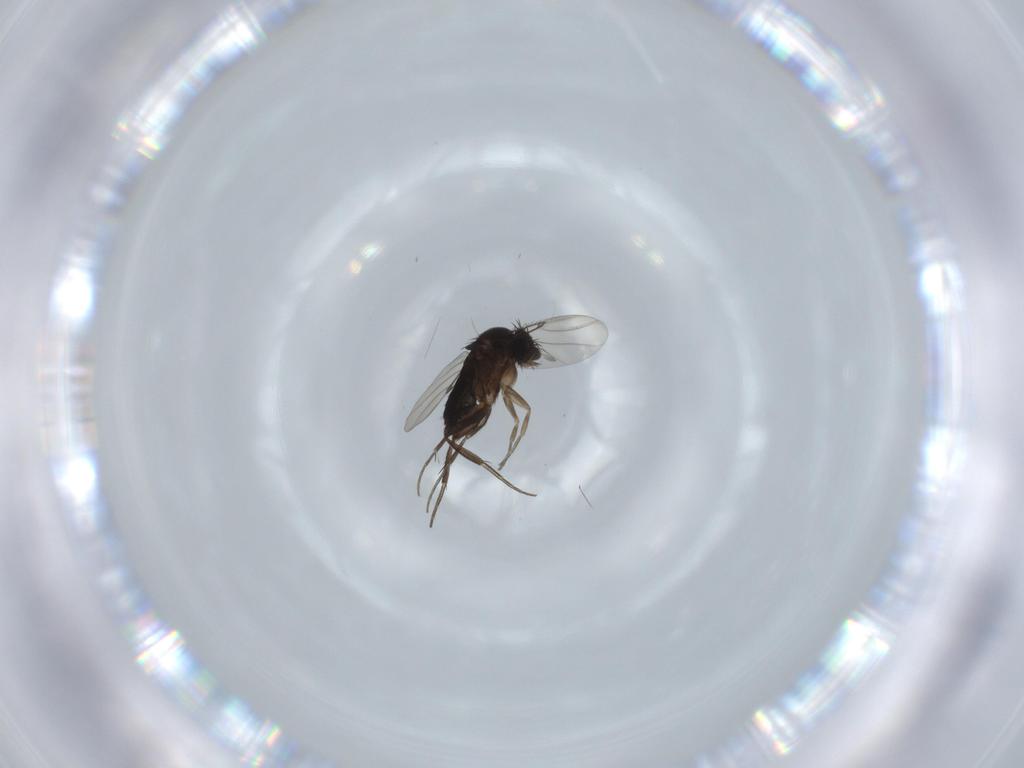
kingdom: Animalia
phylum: Arthropoda
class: Insecta
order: Diptera
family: Phoridae
